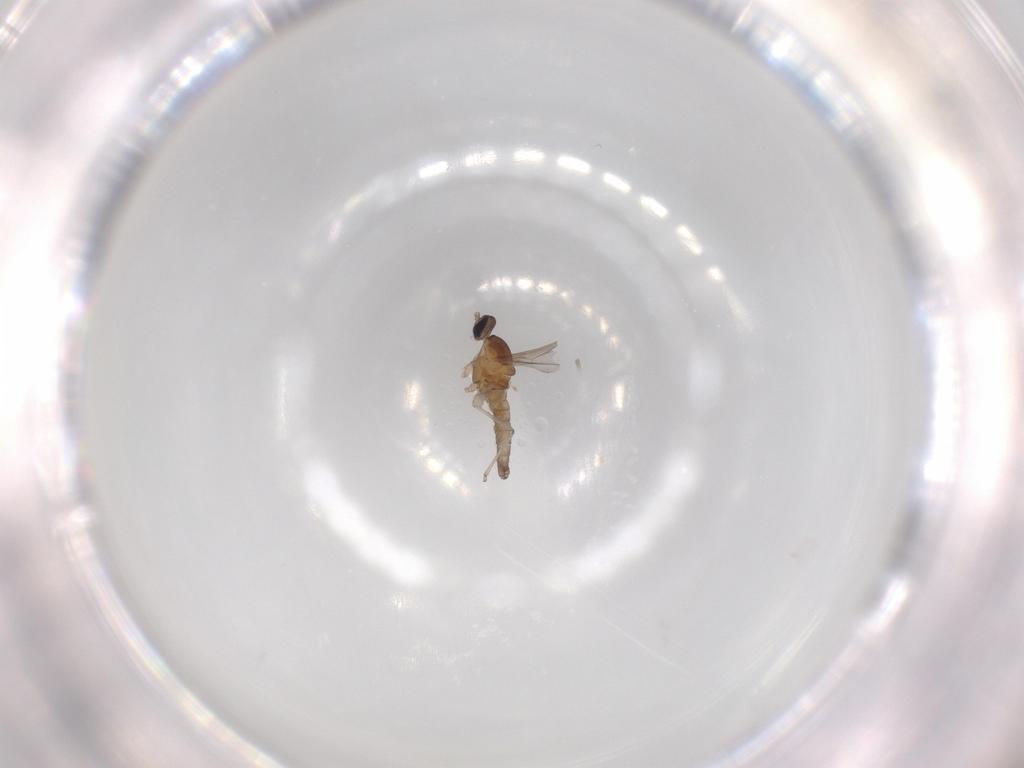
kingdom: Animalia
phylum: Arthropoda
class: Insecta
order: Diptera
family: Cecidomyiidae
